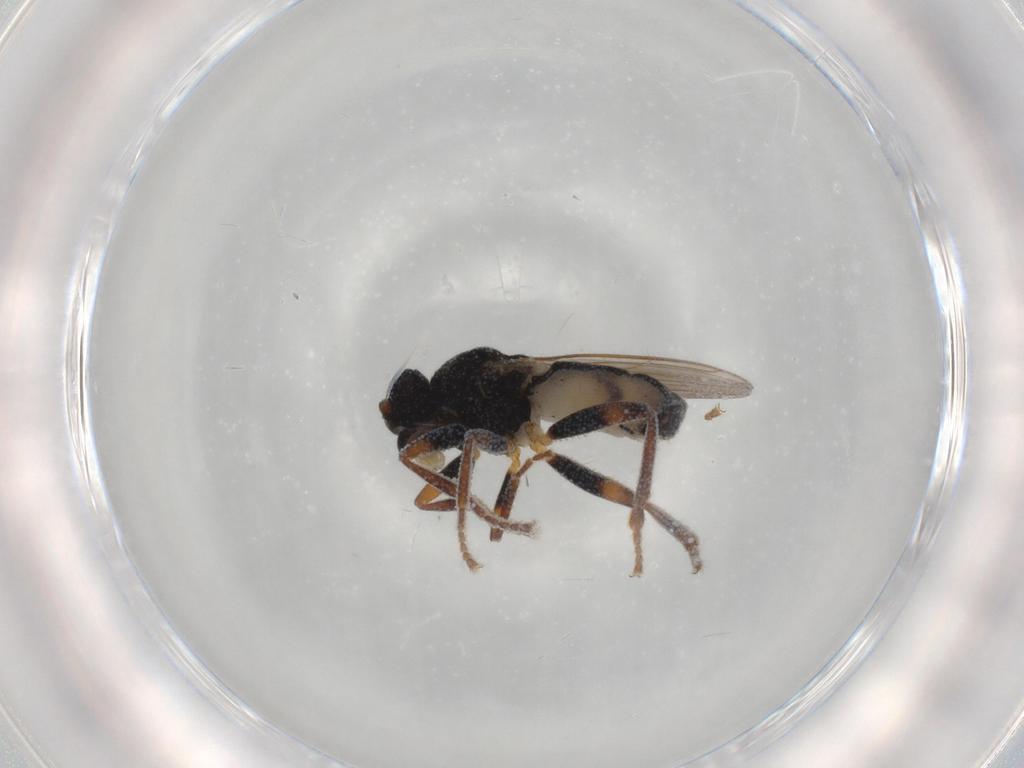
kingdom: Animalia
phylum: Arthropoda
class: Insecta
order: Diptera
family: Sphaeroceridae
